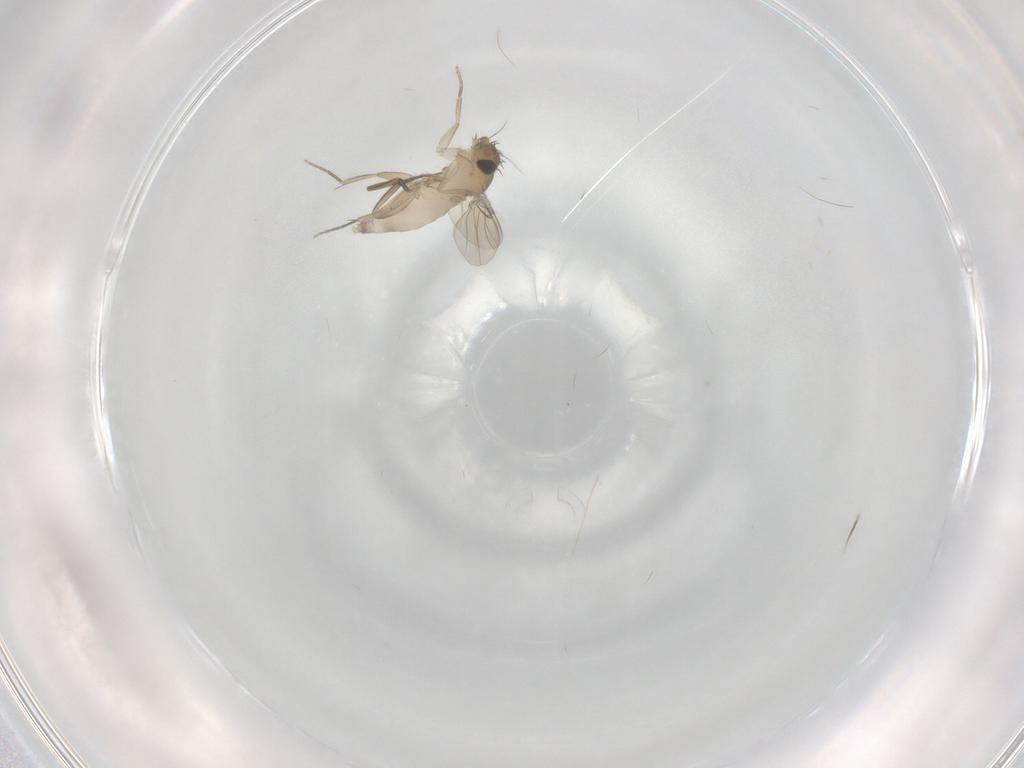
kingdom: Animalia
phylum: Arthropoda
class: Insecta
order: Diptera
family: Phoridae
